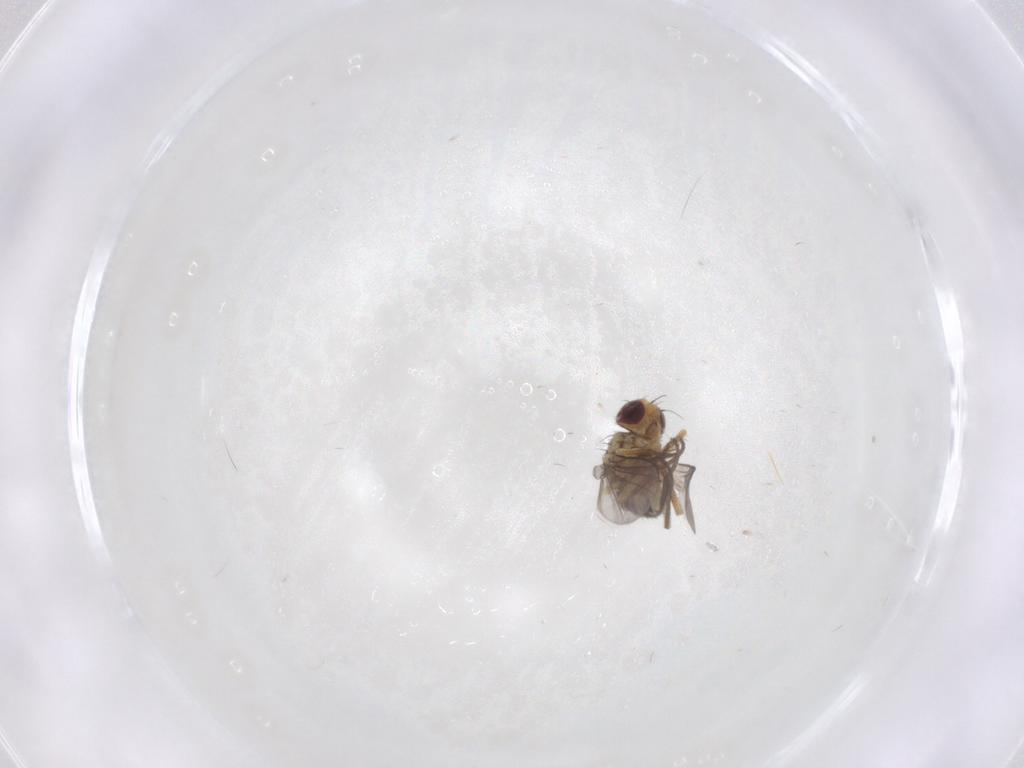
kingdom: Animalia
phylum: Arthropoda
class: Insecta
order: Diptera
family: Agromyzidae
